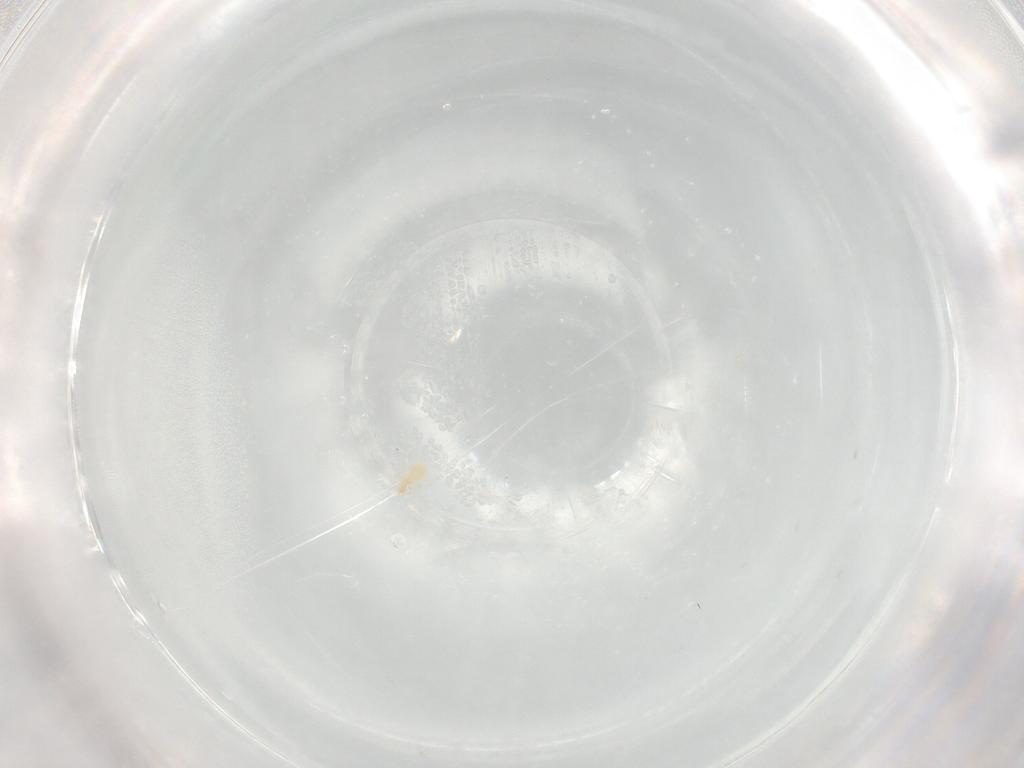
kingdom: Animalia
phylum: Arthropoda
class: Arachnida
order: Trombidiformes
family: Erythraeidae
